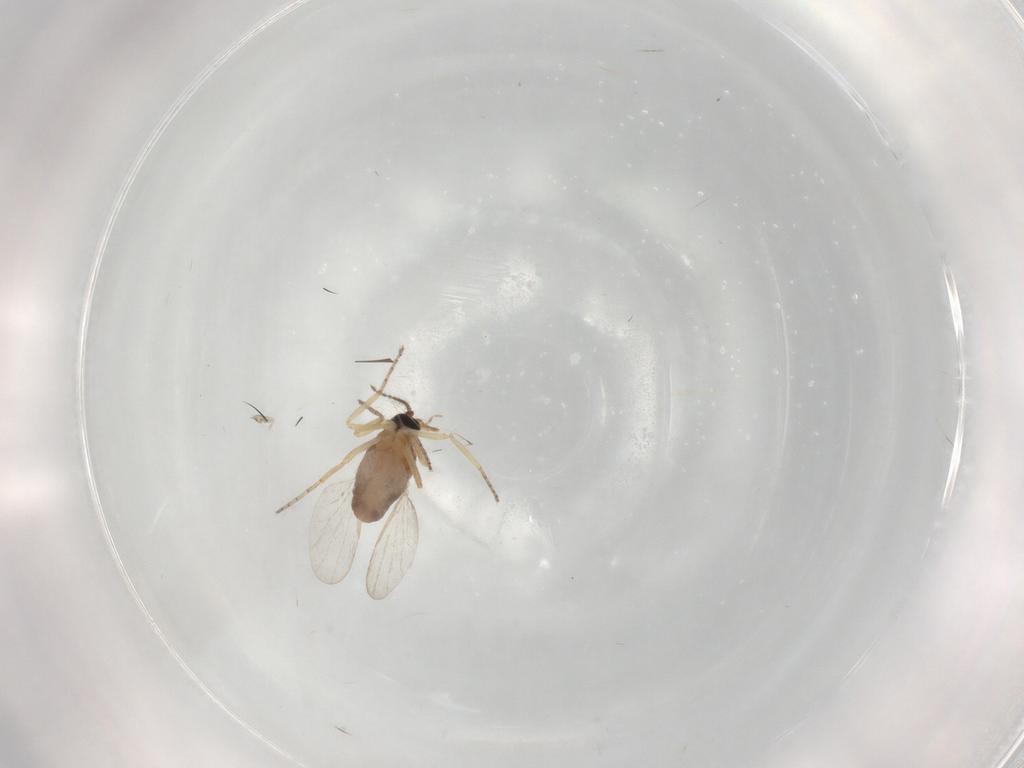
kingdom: Animalia
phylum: Arthropoda
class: Insecta
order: Diptera
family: Ceratopogonidae
